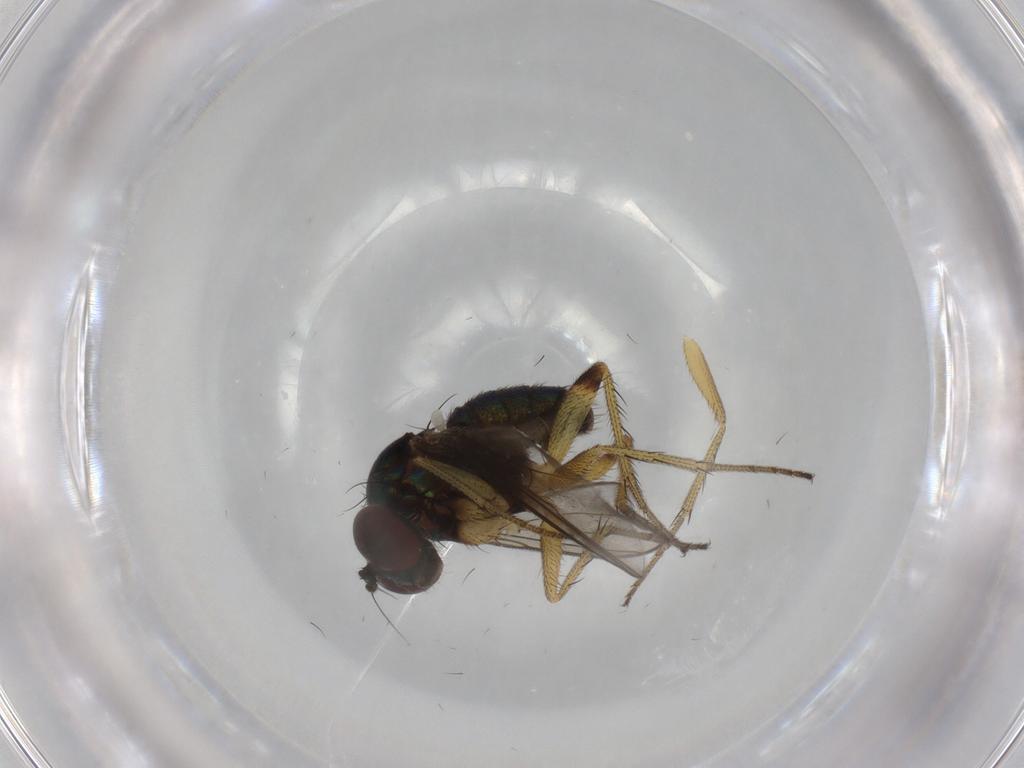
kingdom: Animalia
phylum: Arthropoda
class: Insecta
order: Diptera
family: Dolichopodidae
